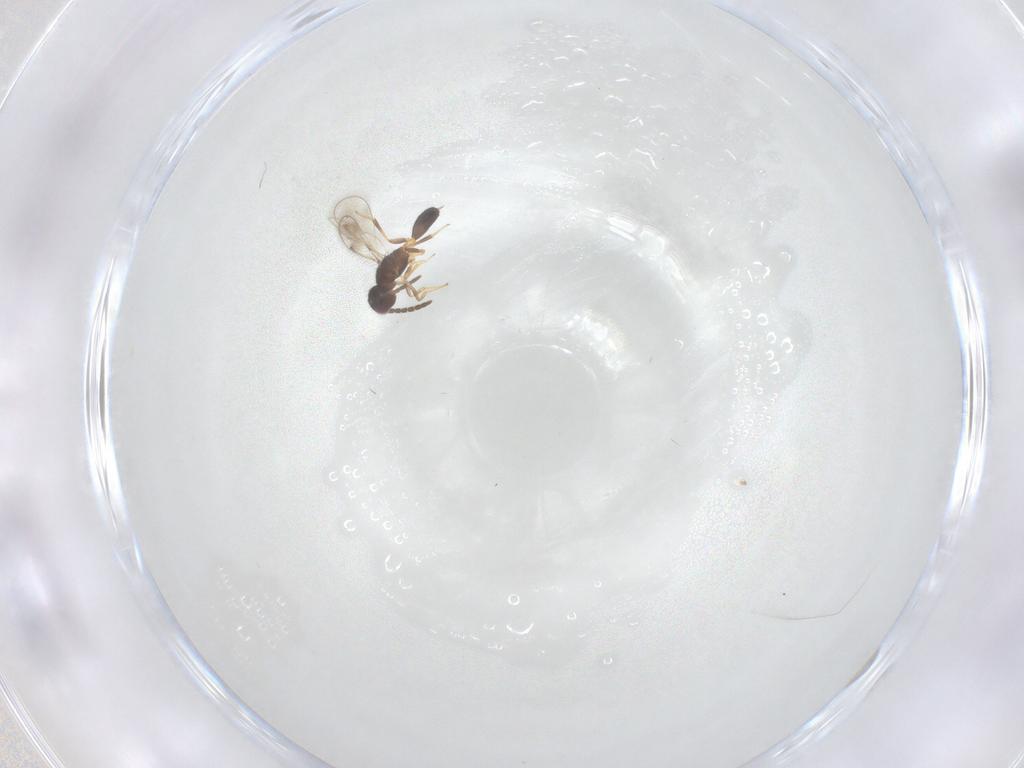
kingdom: Animalia
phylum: Arthropoda
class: Insecta
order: Hymenoptera
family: Pteromalidae
